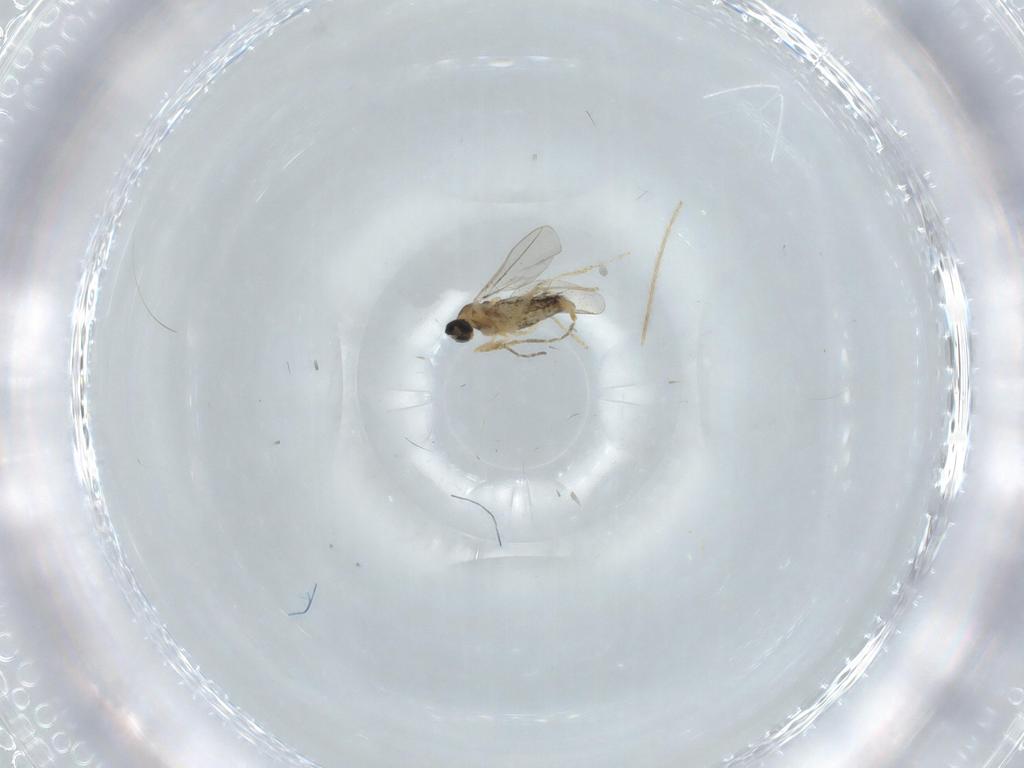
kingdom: Animalia
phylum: Arthropoda
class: Insecta
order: Diptera
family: Cecidomyiidae
